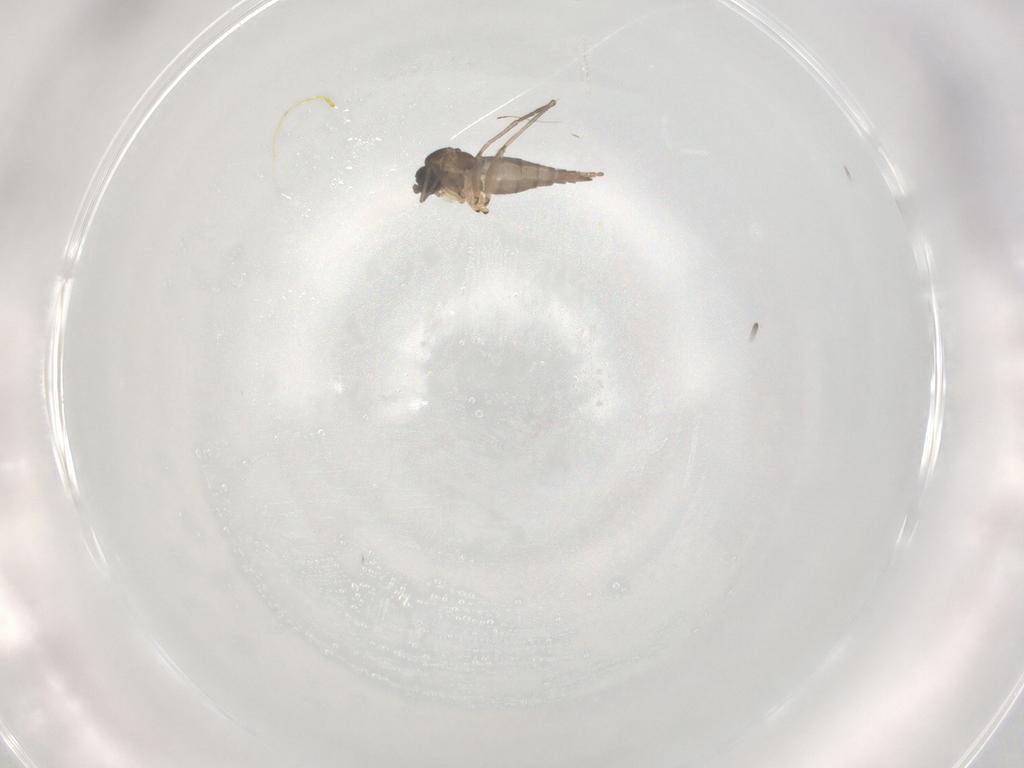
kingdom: Animalia
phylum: Arthropoda
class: Insecta
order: Diptera
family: Sciaridae
